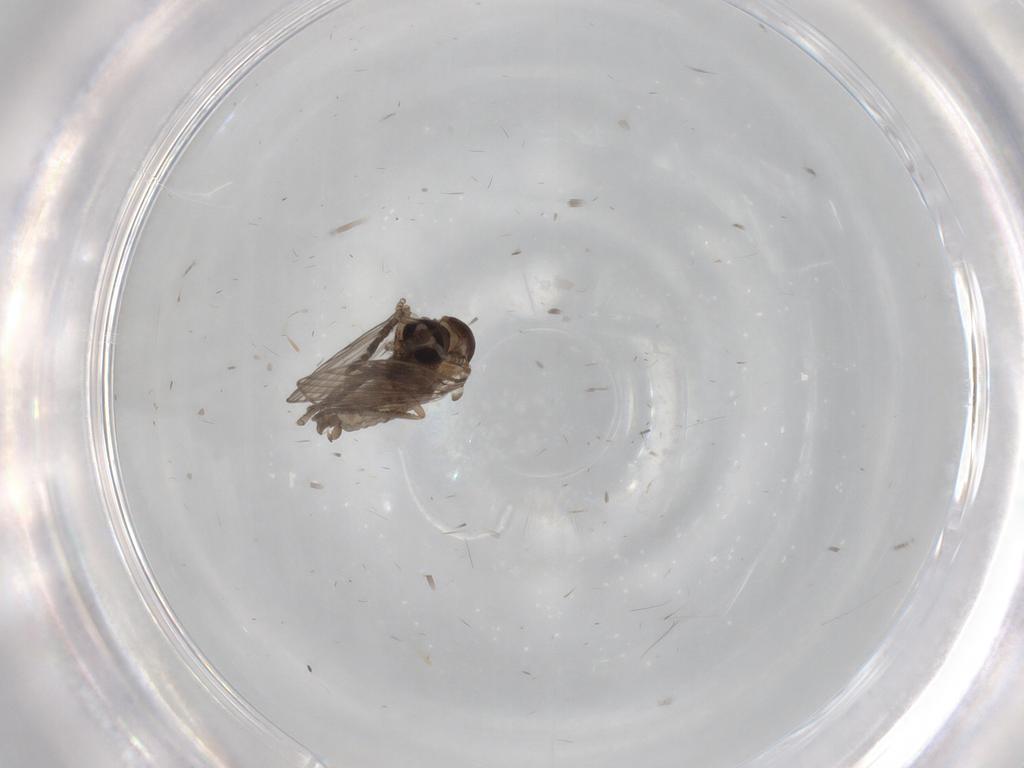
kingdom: Animalia
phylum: Arthropoda
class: Insecta
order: Diptera
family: Psychodidae
